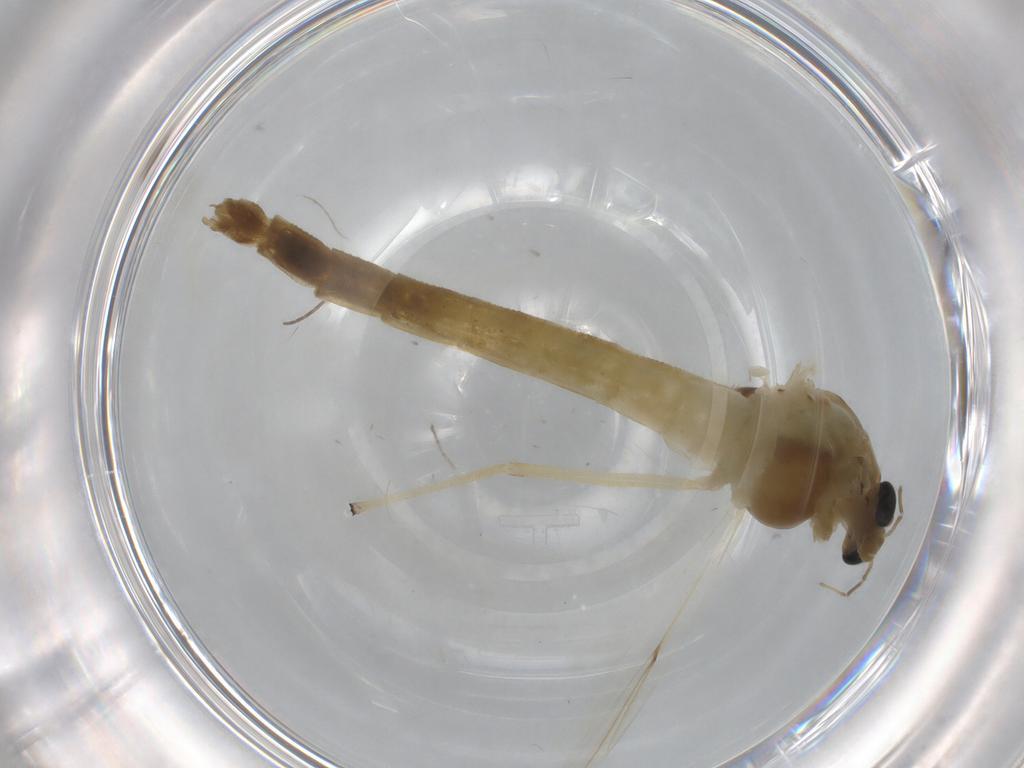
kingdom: Animalia
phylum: Arthropoda
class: Insecta
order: Diptera
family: Chironomidae
